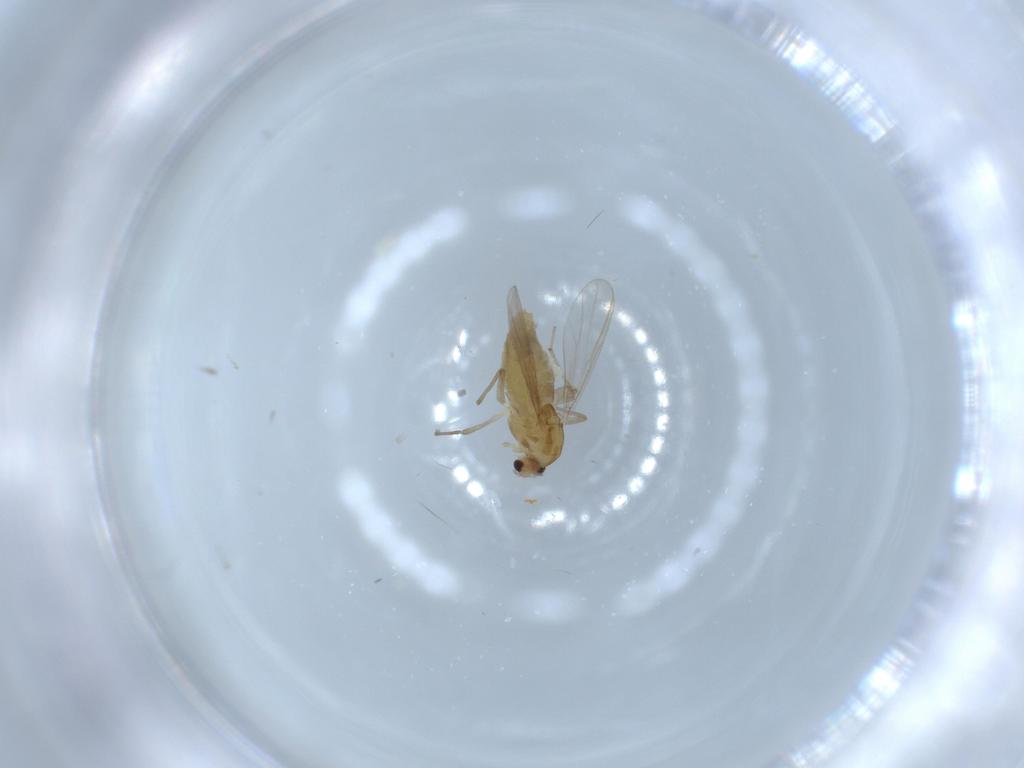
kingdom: Animalia
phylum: Arthropoda
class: Insecta
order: Diptera
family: Chironomidae
